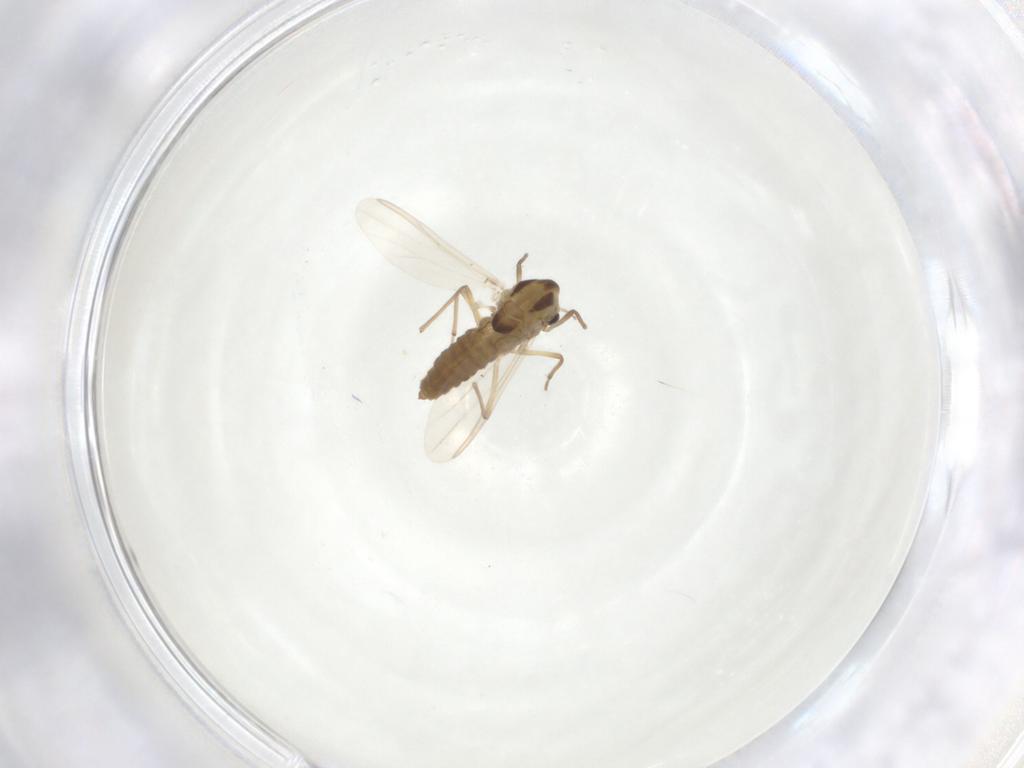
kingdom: Animalia
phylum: Arthropoda
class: Insecta
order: Diptera
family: Chironomidae
